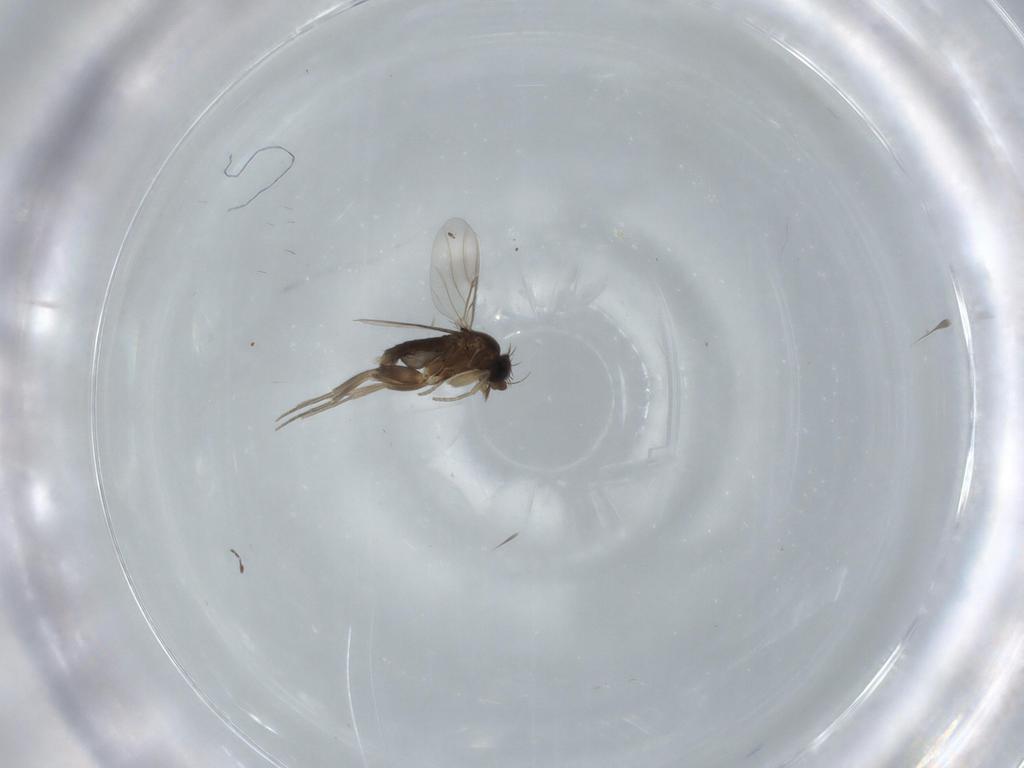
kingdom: Animalia
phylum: Arthropoda
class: Insecta
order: Diptera
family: Phoridae
